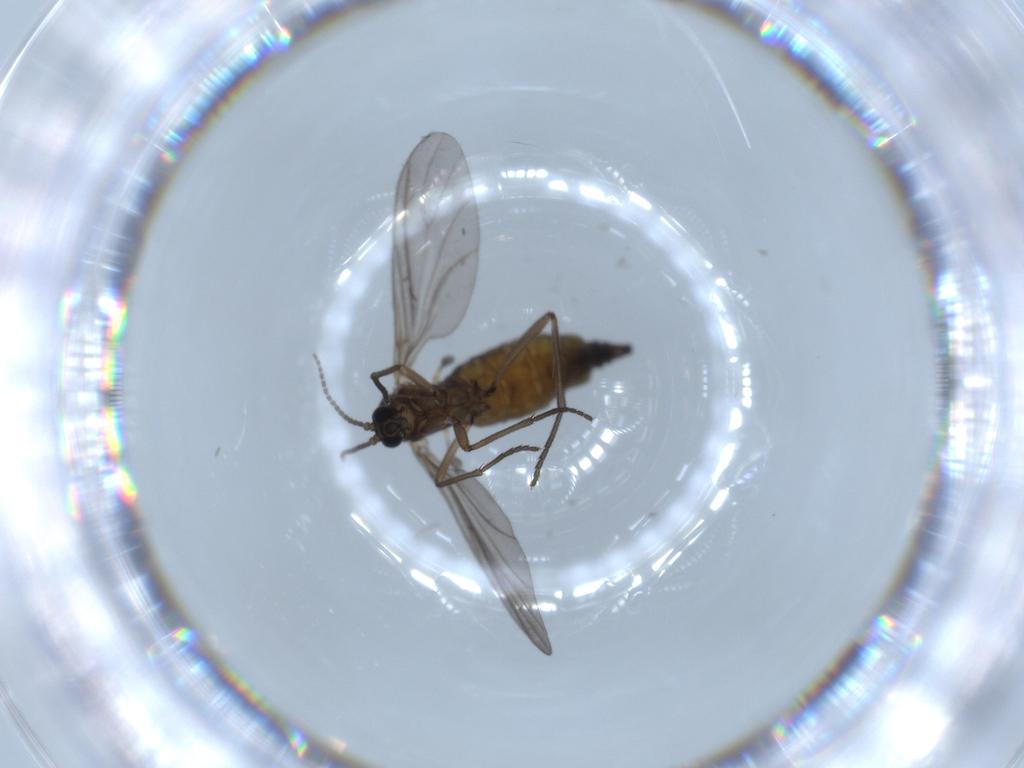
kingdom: Animalia
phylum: Arthropoda
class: Insecta
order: Diptera
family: Sciaridae
